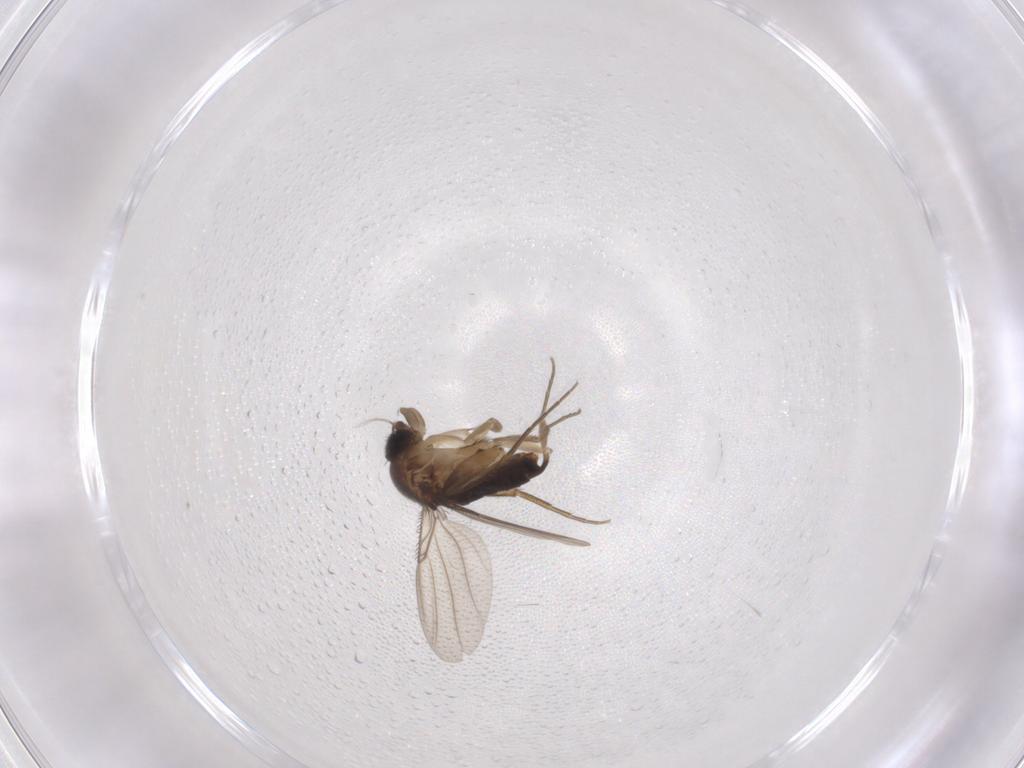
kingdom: Animalia
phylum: Arthropoda
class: Insecta
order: Diptera
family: Phoridae
